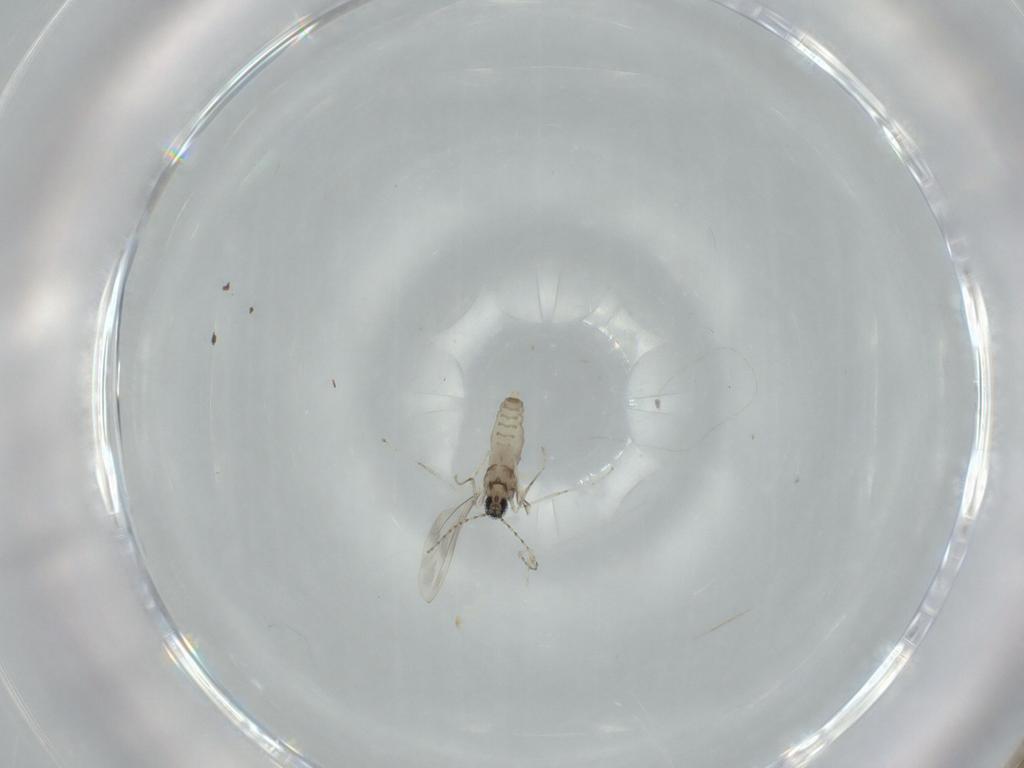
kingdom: Animalia
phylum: Arthropoda
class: Insecta
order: Diptera
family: Cecidomyiidae
